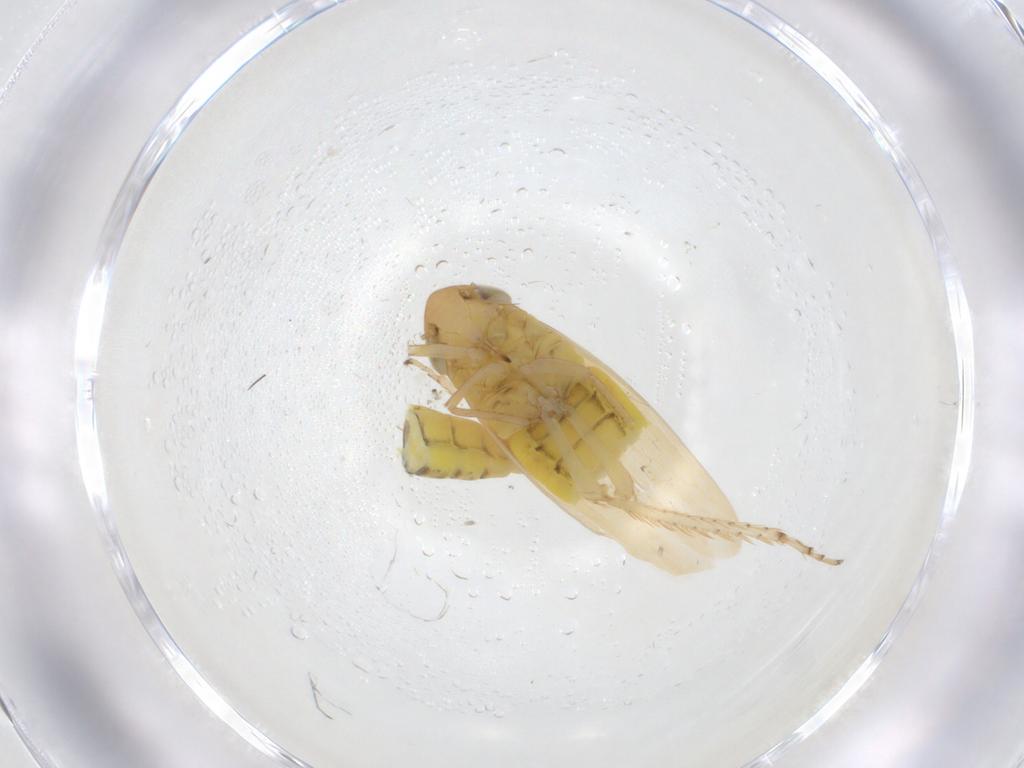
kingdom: Animalia
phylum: Arthropoda
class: Insecta
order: Hemiptera
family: Cicadellidae
